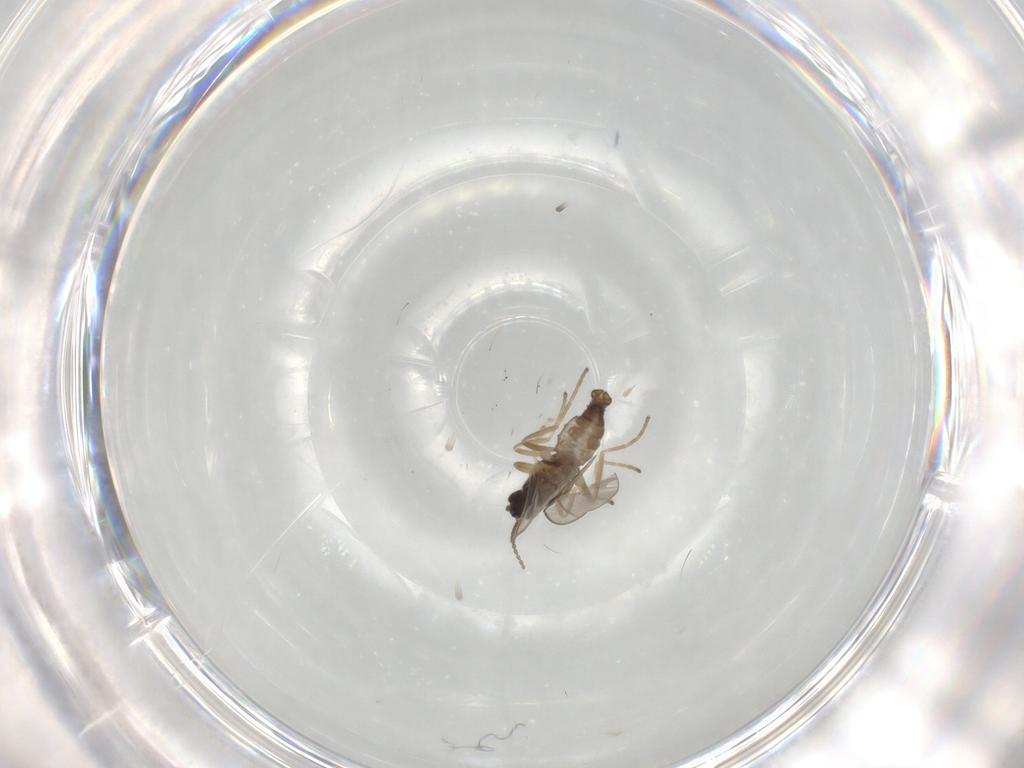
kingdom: Animalia
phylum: Arthropoda
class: Insecta
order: Diptera
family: Cecidomyiidae
